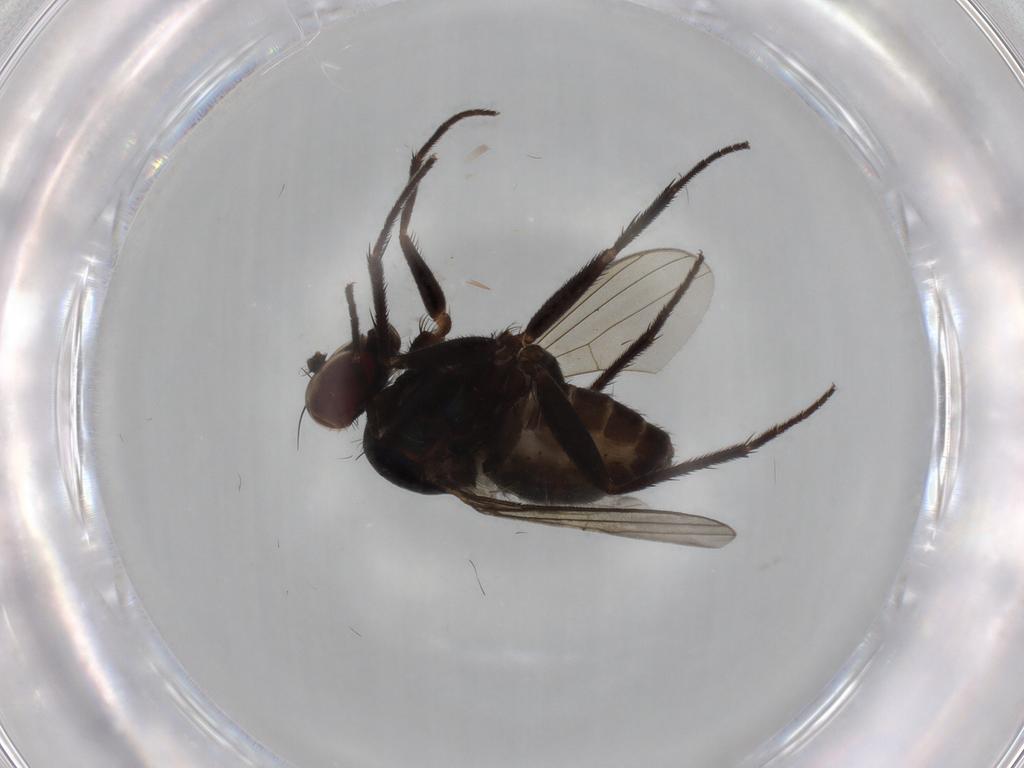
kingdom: Animalia
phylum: Arthropoda
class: Insecta
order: Diptera
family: Dolichopodidae
